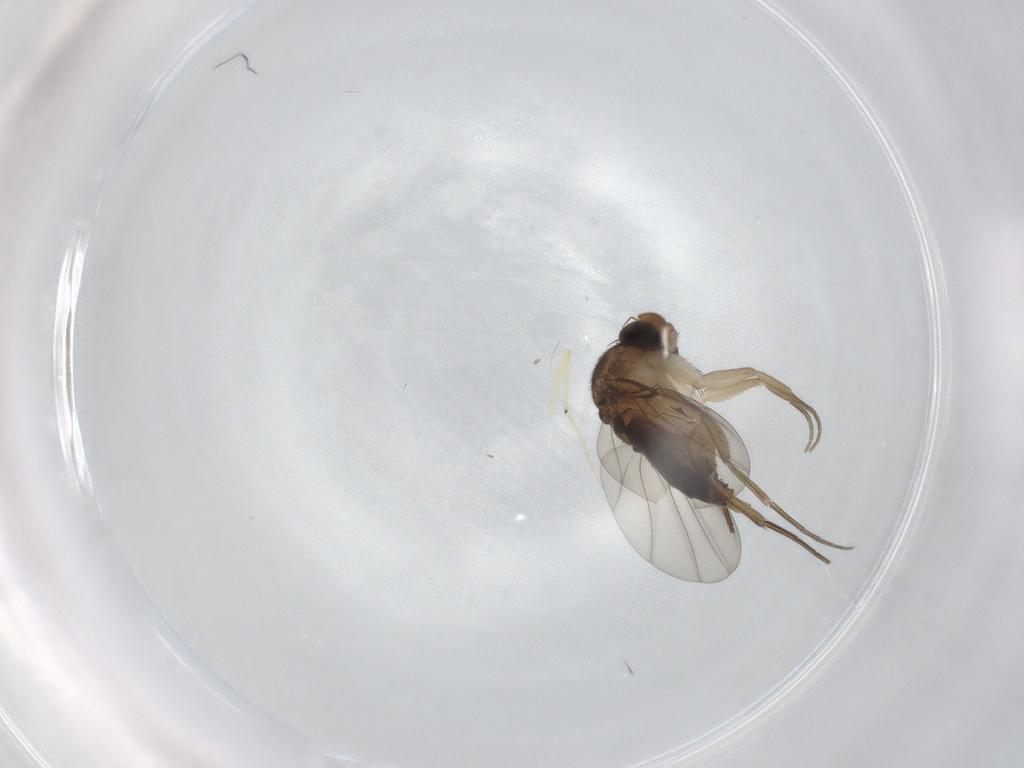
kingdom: Animalia
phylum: Arthropoda
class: Insecta
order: Diptera
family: Phoridae
